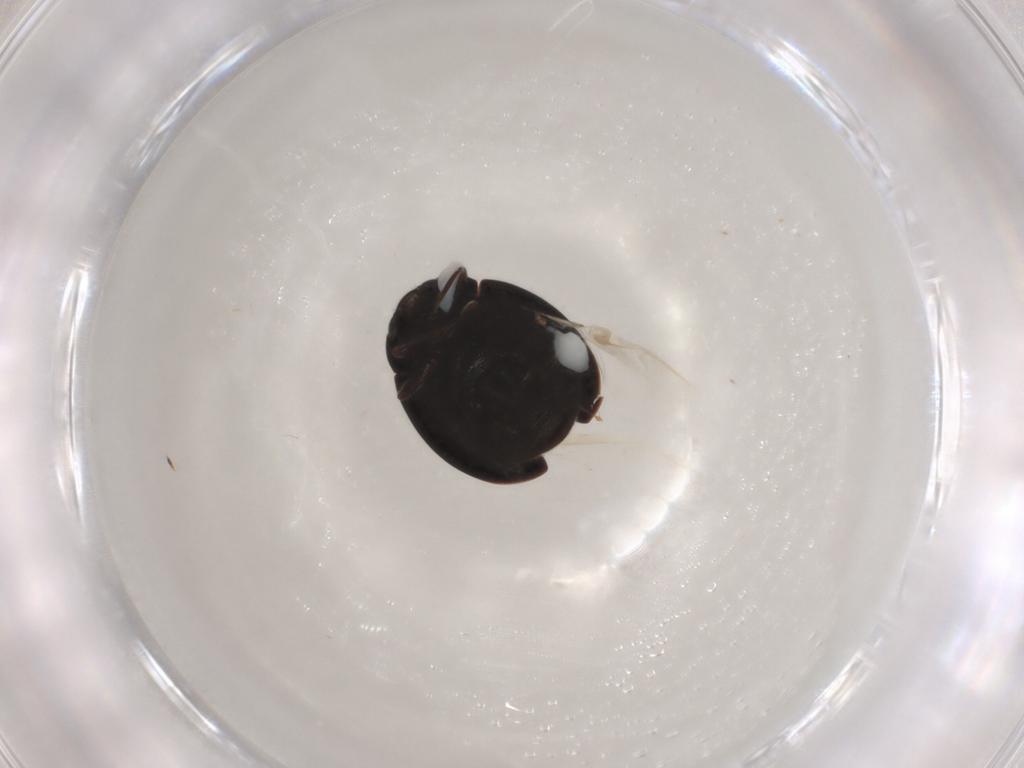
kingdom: Animalia
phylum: Arthropoda
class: Insecta
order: Coleoptera
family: Coccinellidae
